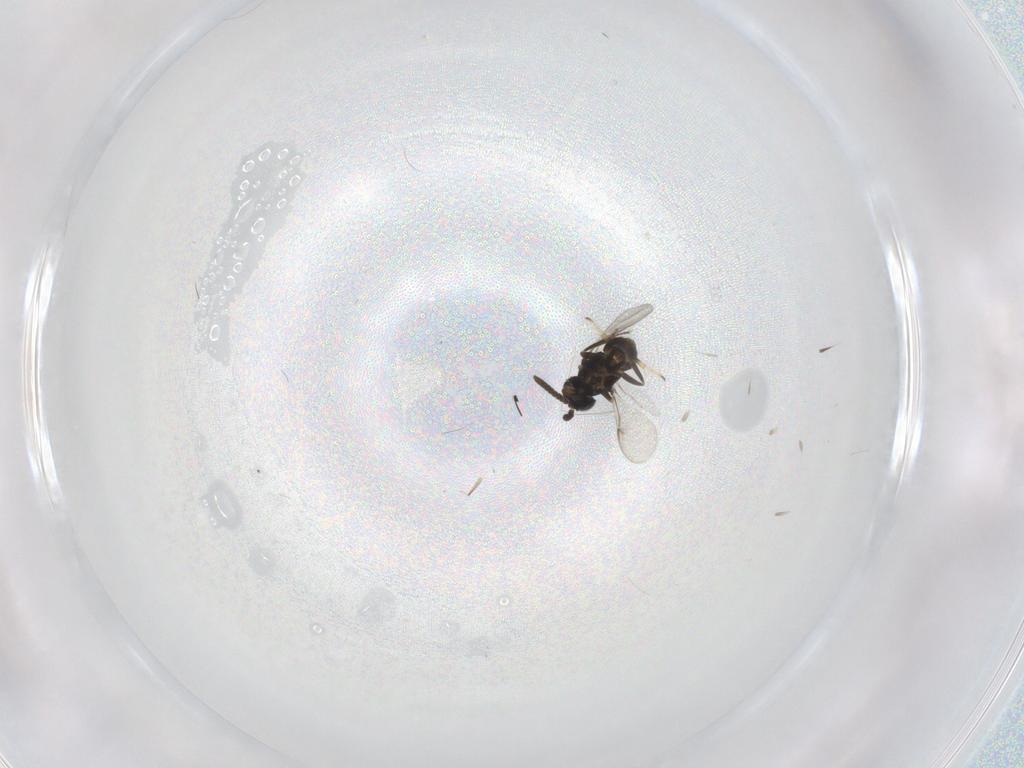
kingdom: Animalia
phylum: Arthropoda
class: Insecta
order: Hymenoptera
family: Encyrtidae
